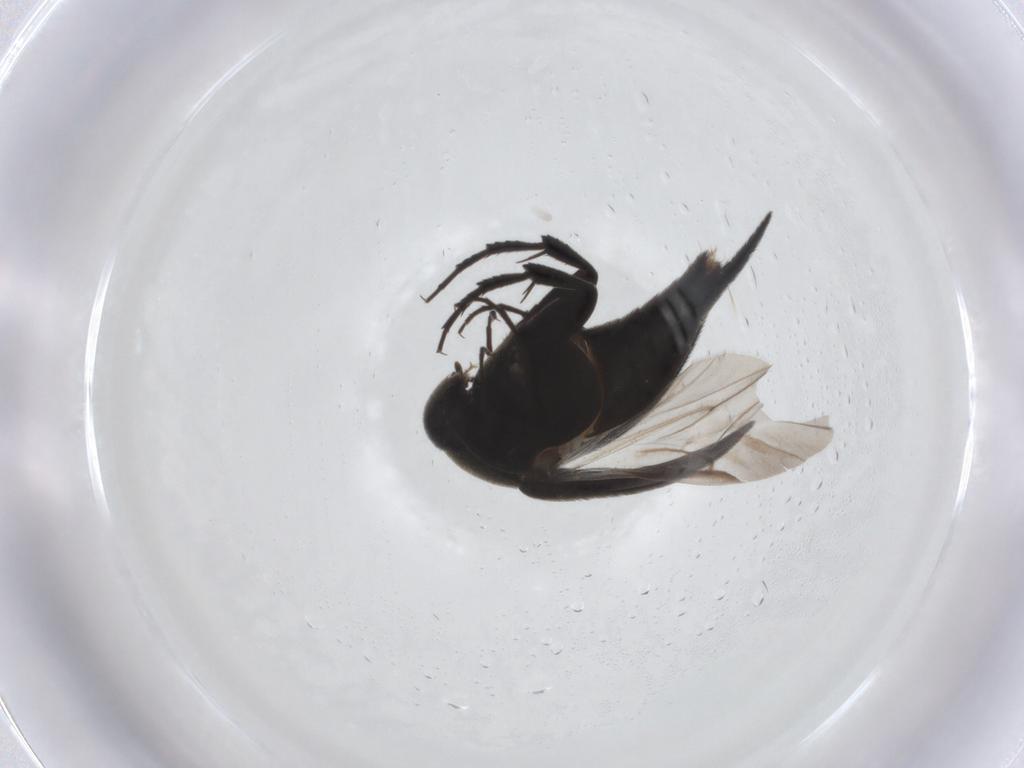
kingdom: Animalia
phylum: Arthropoda
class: Insecta
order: Coleoptera
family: Mordellidae
